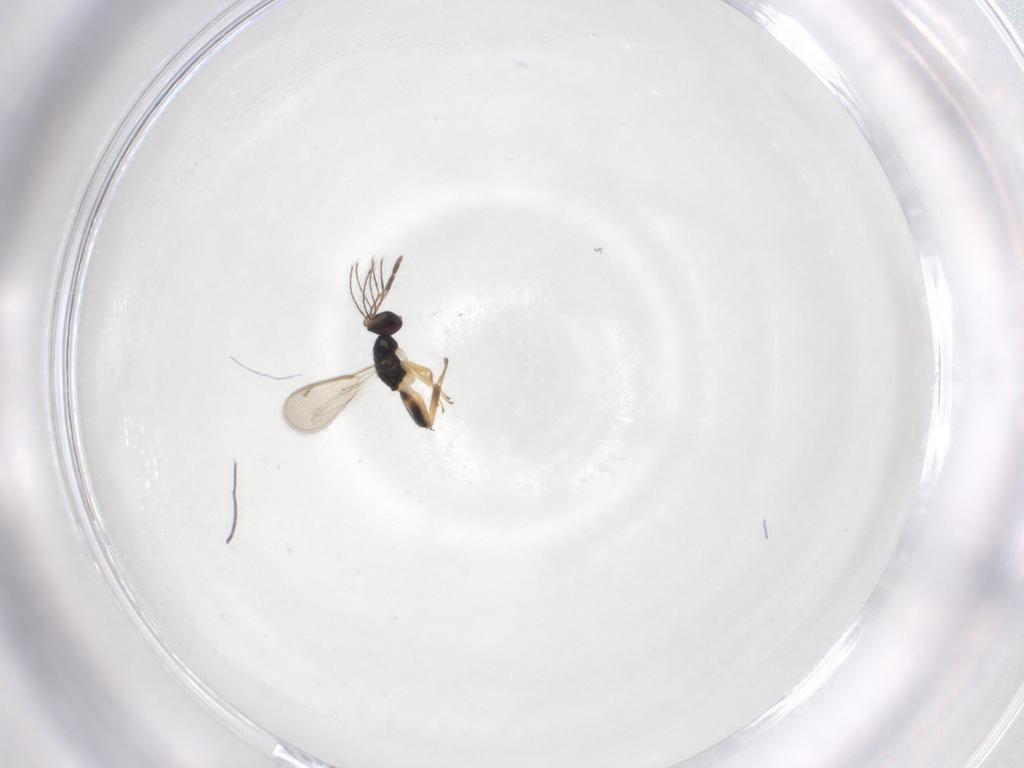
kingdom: Animalia
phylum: Arthropoda
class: Insecta
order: Hymenoptera
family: Eulophidae
